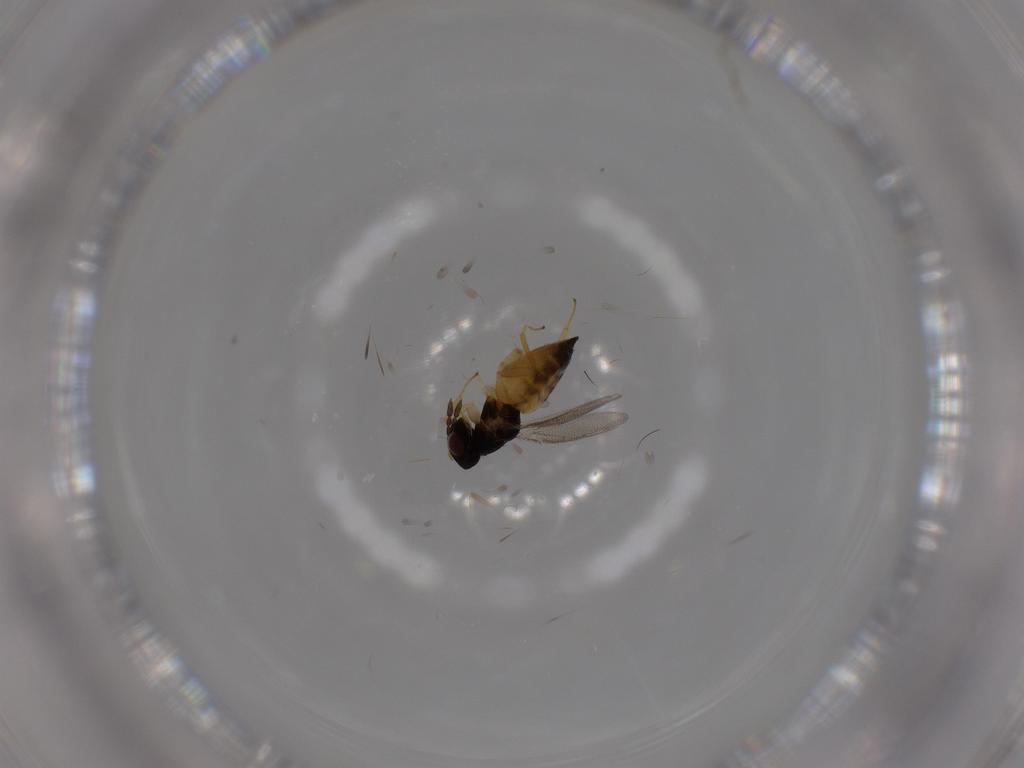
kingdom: Animalia
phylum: Arthropoda
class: Insecta
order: Hymenoptera
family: Eulophidae
